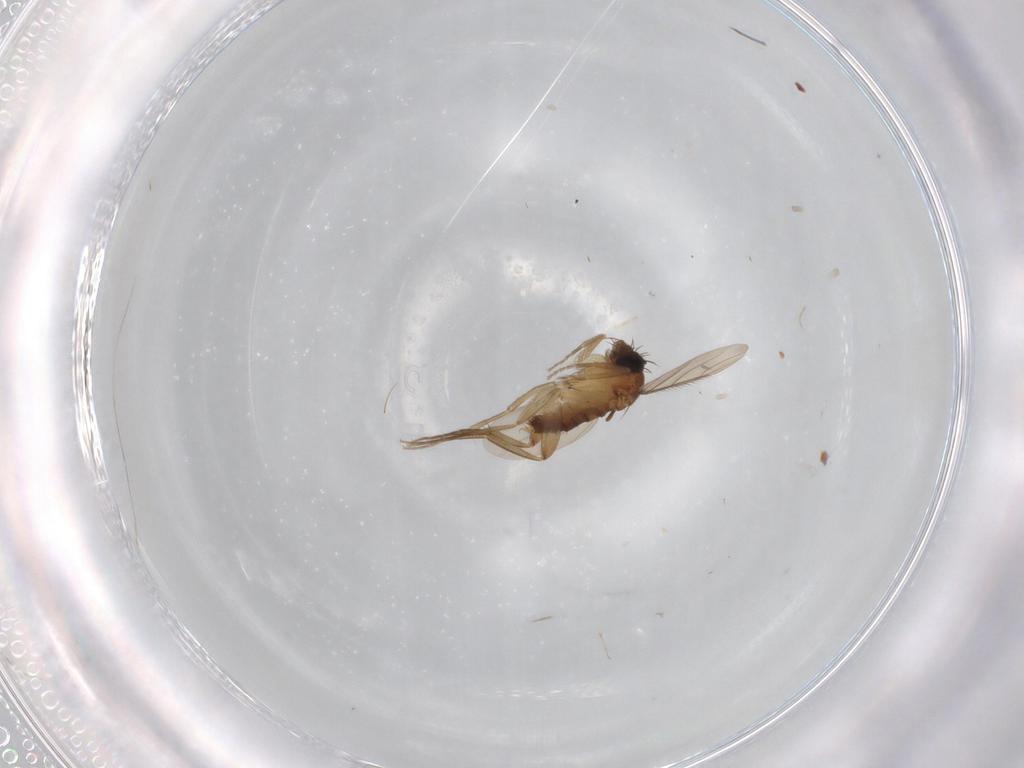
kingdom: Animalia
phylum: Arthropoda
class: Insecta
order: Diptera
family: Phoridae
